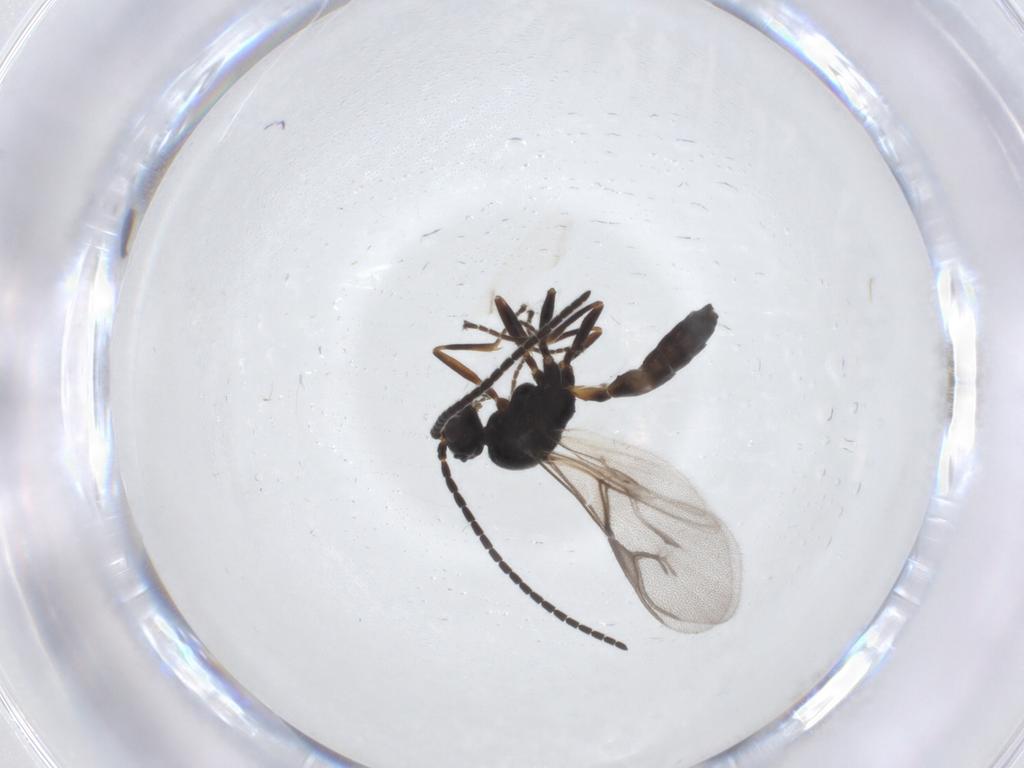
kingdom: Animalia
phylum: Arthropoda
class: Insecta
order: Hymenoptera
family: Braconidae
